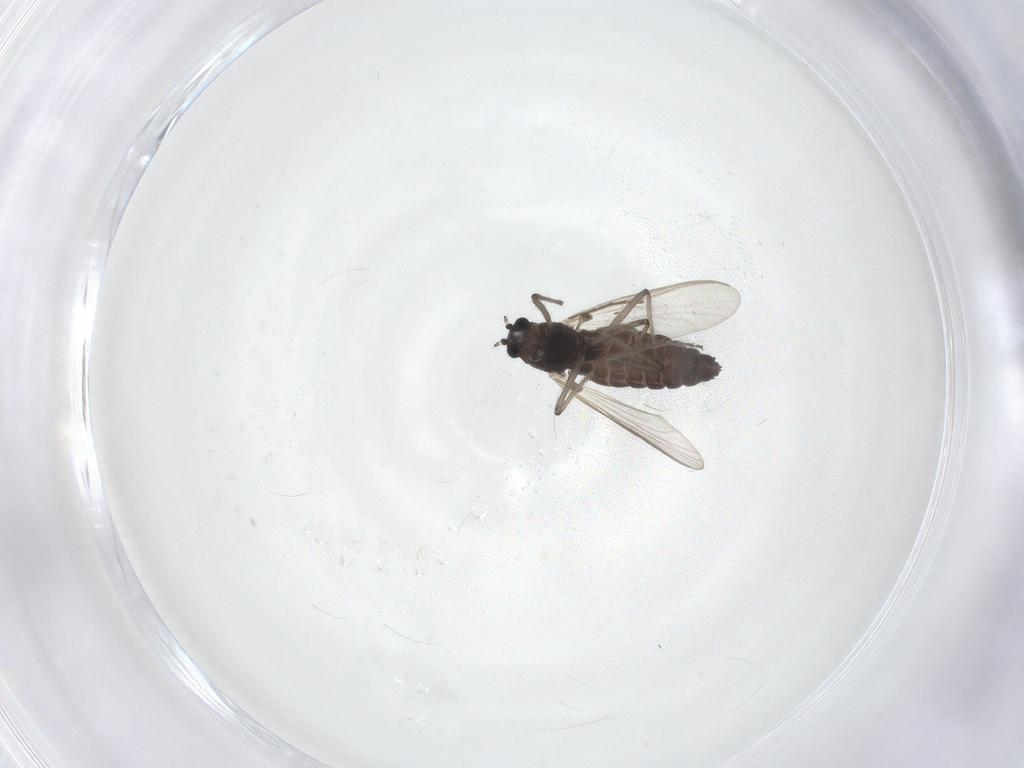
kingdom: Animalia
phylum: Arthropoda
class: Insecta
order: Diptera
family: Chironomidae
